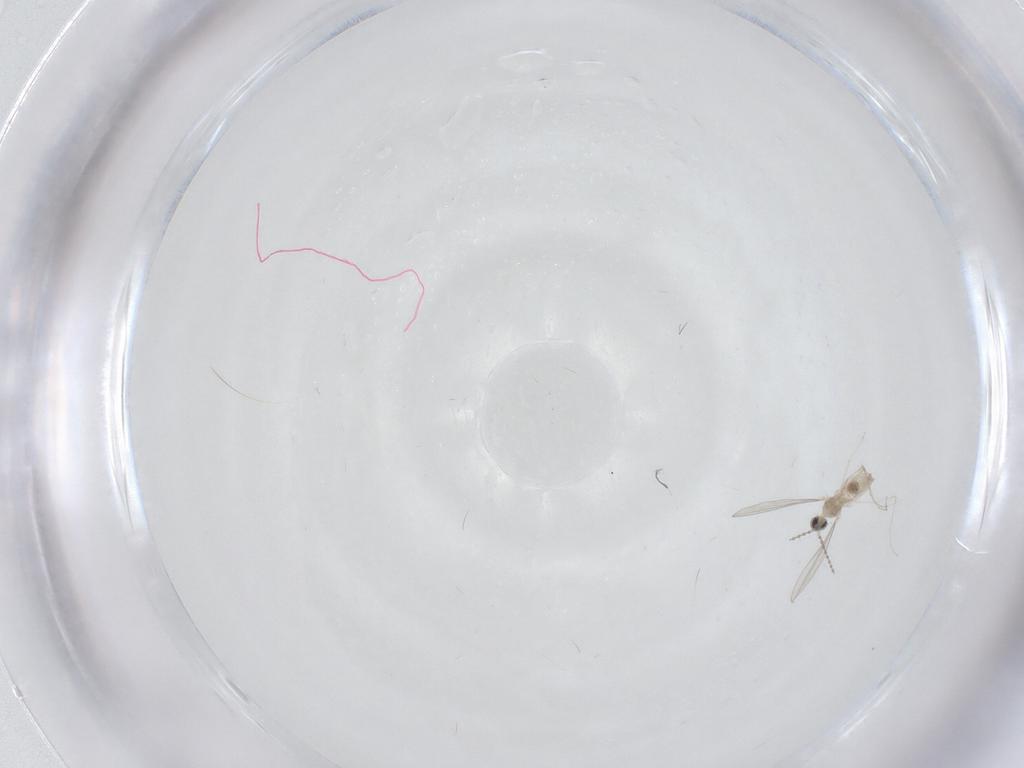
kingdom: Animalia
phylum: Arthropoda
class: Insecta
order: Diptera
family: Cecidomyiidae
